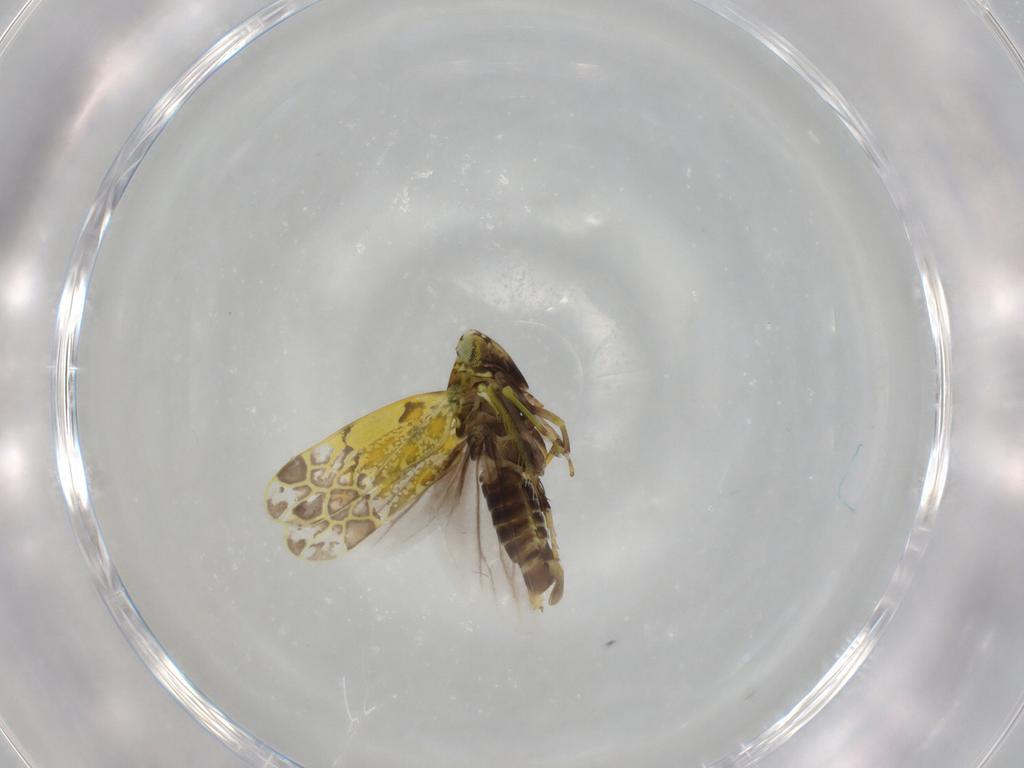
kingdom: Animalia
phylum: Arthropoda
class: Insecta
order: Hemiptera
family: Cicadellidae
